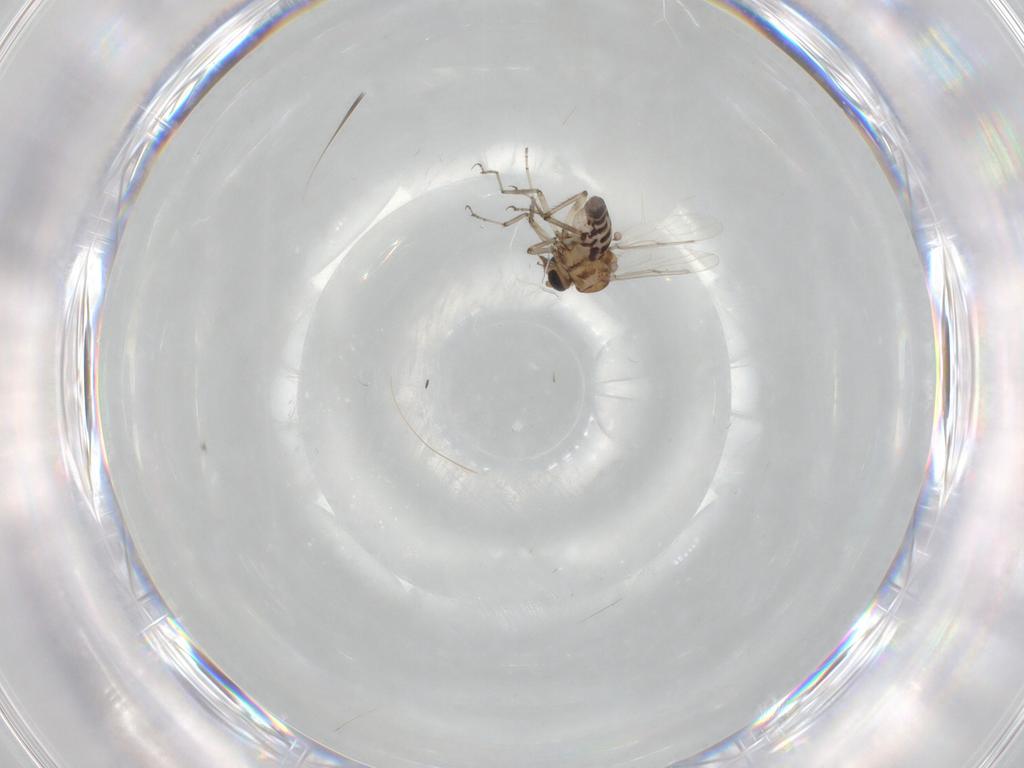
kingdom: Animalia
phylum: Arthropoda
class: Insecta
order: Diptera
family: Ceratopogonidae
